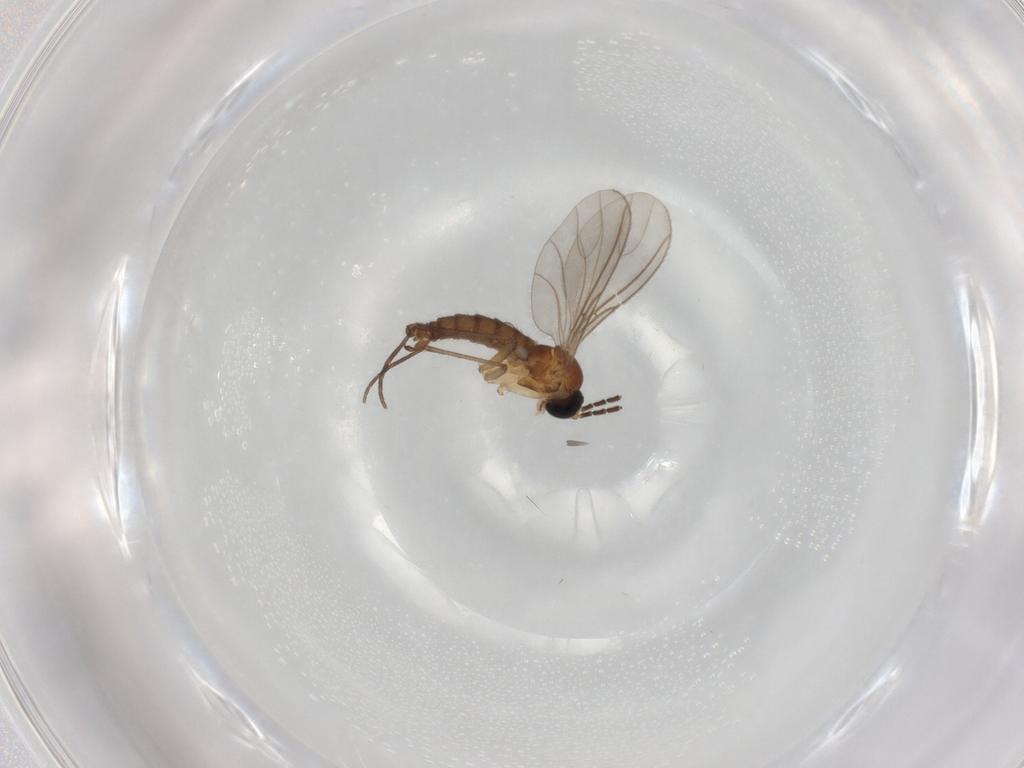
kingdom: Animalia
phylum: Arthropoda
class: Insecta
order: Diptera
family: Sciaridae
